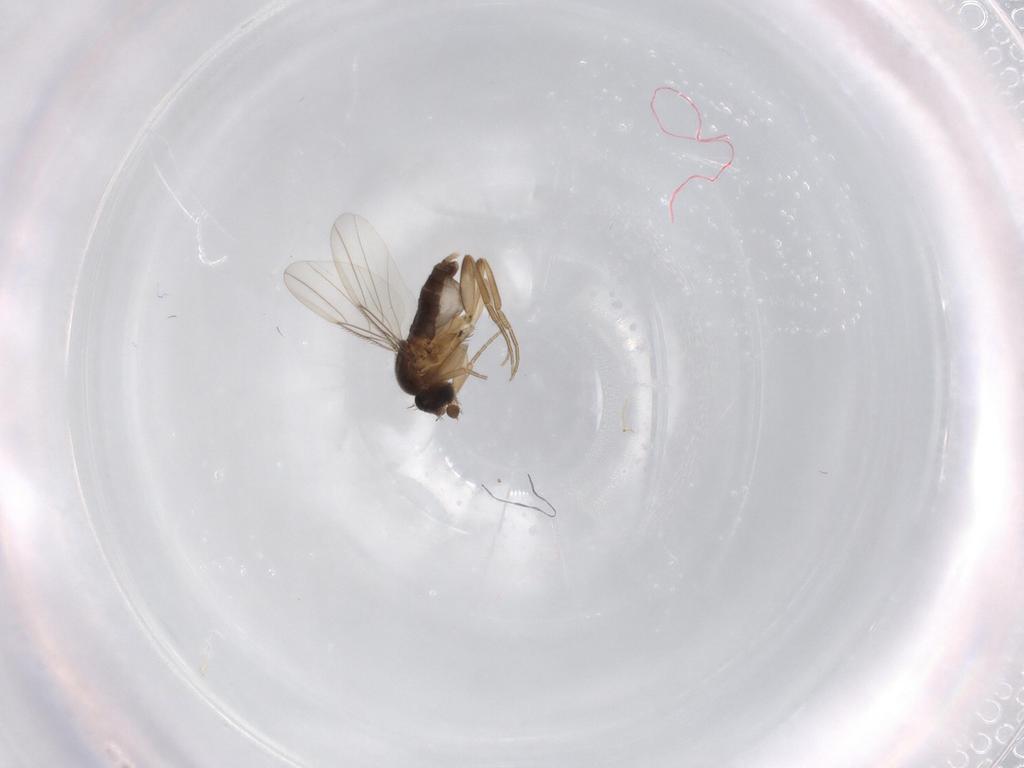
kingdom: Animalia
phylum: Arthropoda
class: Insecta
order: Diptera
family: Phoridae
